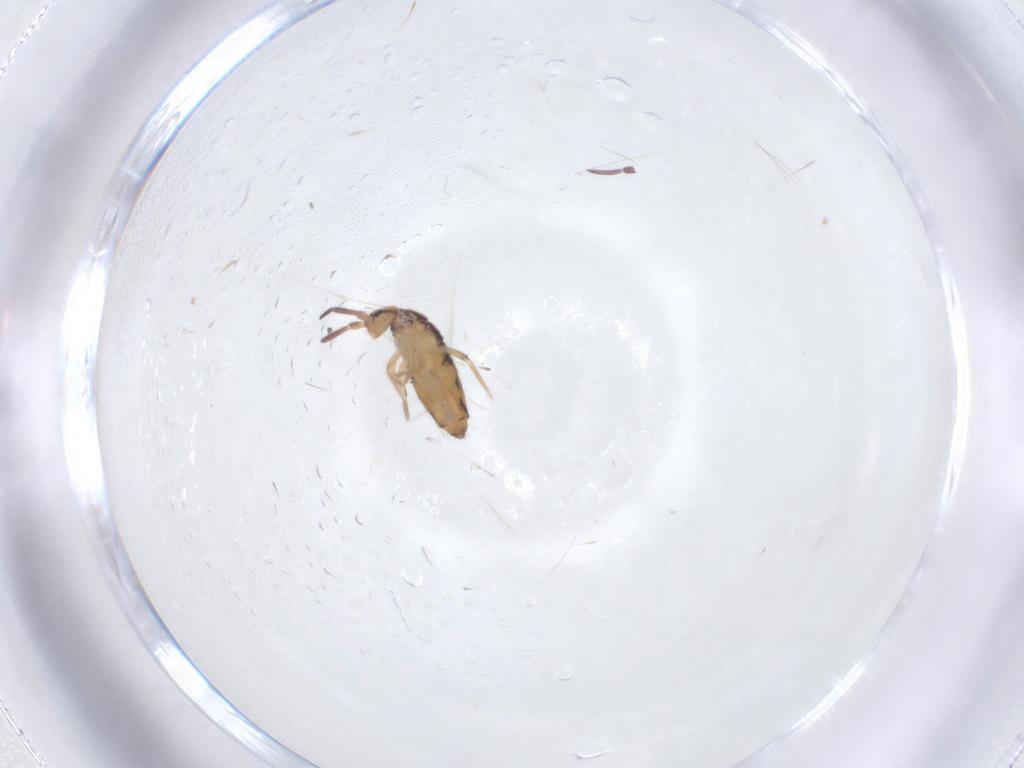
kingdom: Animalia
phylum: Arthropoda
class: Collembola
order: Entomobryomorpha
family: Entomobryidae
